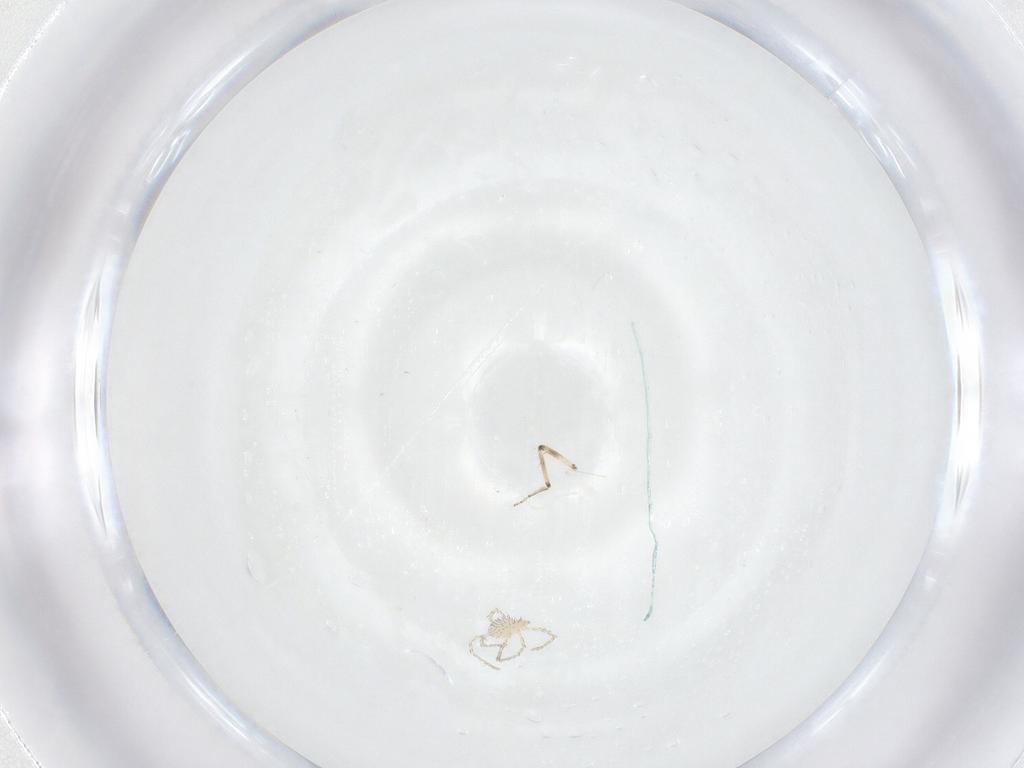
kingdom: Animalia
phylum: Arthropoda
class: Insecta
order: Diptera
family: Ceratopogonidae
